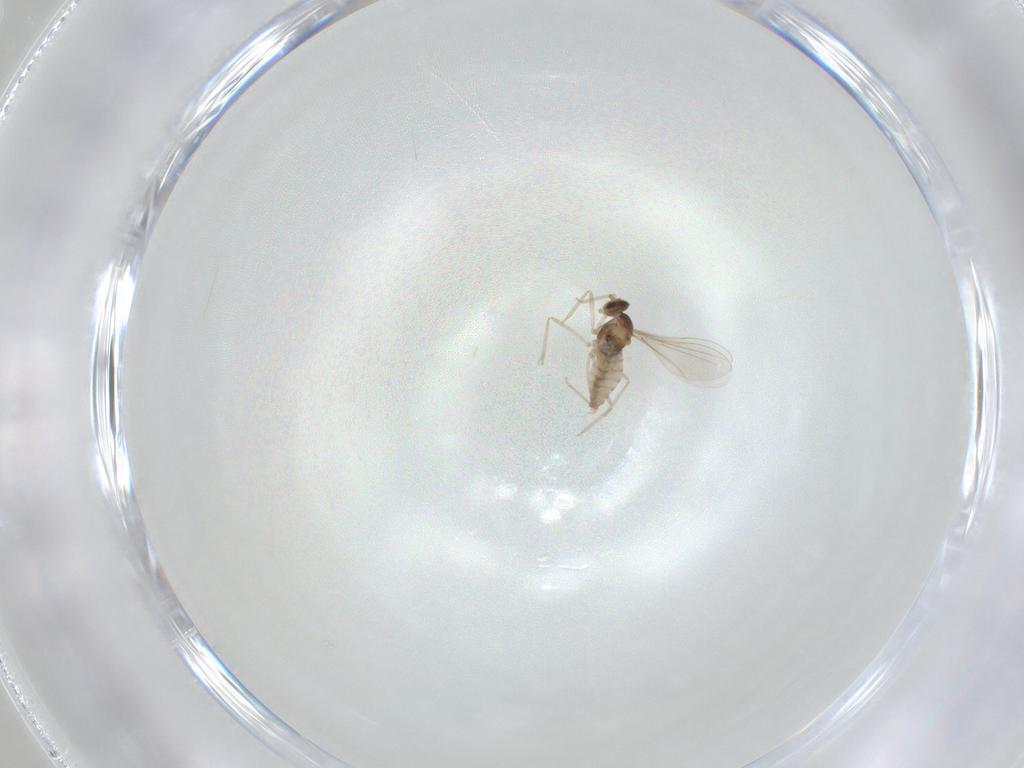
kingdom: Animalia
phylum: Arthropoda
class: Insecta
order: Diptera
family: Cecidomyiidae
